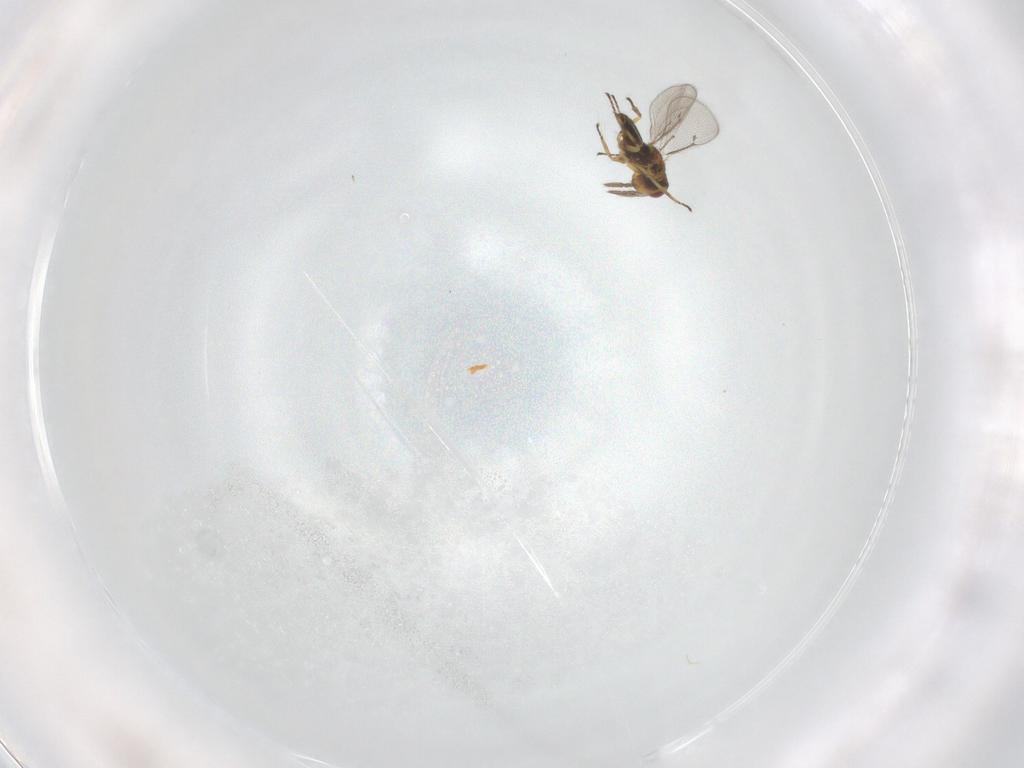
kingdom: Animalia
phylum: Arthropoda
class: Insecta
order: Hymenoptera
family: Eulophidae
